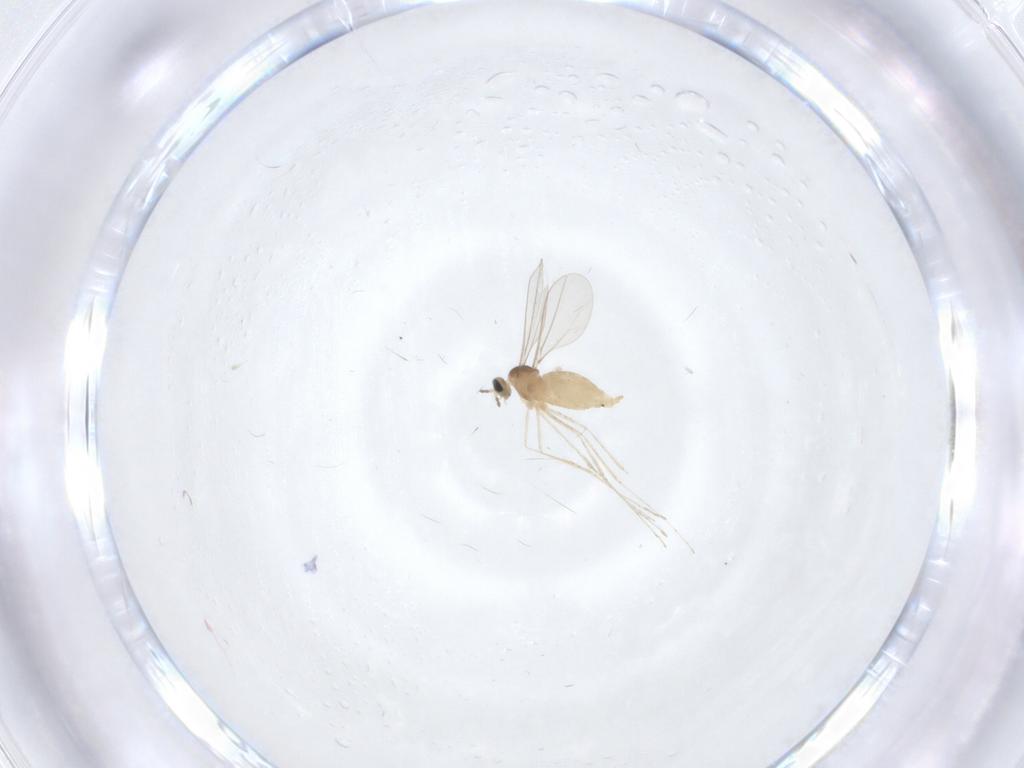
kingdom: Animalia
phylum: Arthropoda
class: Insecta
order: Diptera
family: Cecidomyiidae
